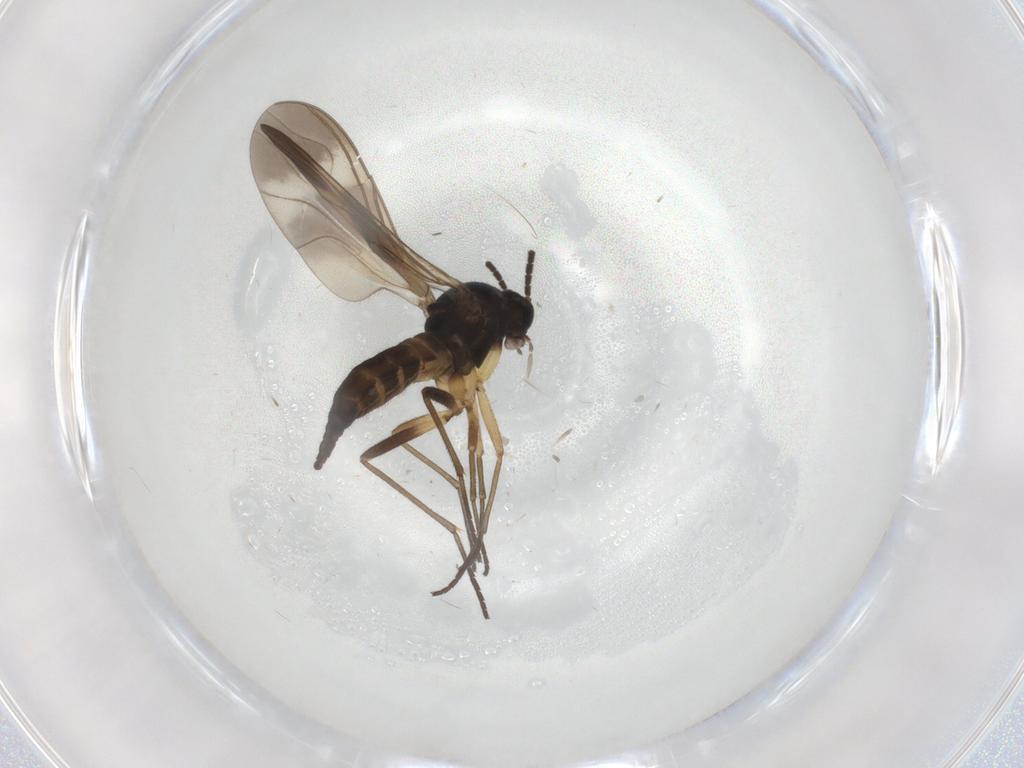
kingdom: Animalia
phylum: Arthropoda
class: Insecta
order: Diptera
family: Sciaridae
